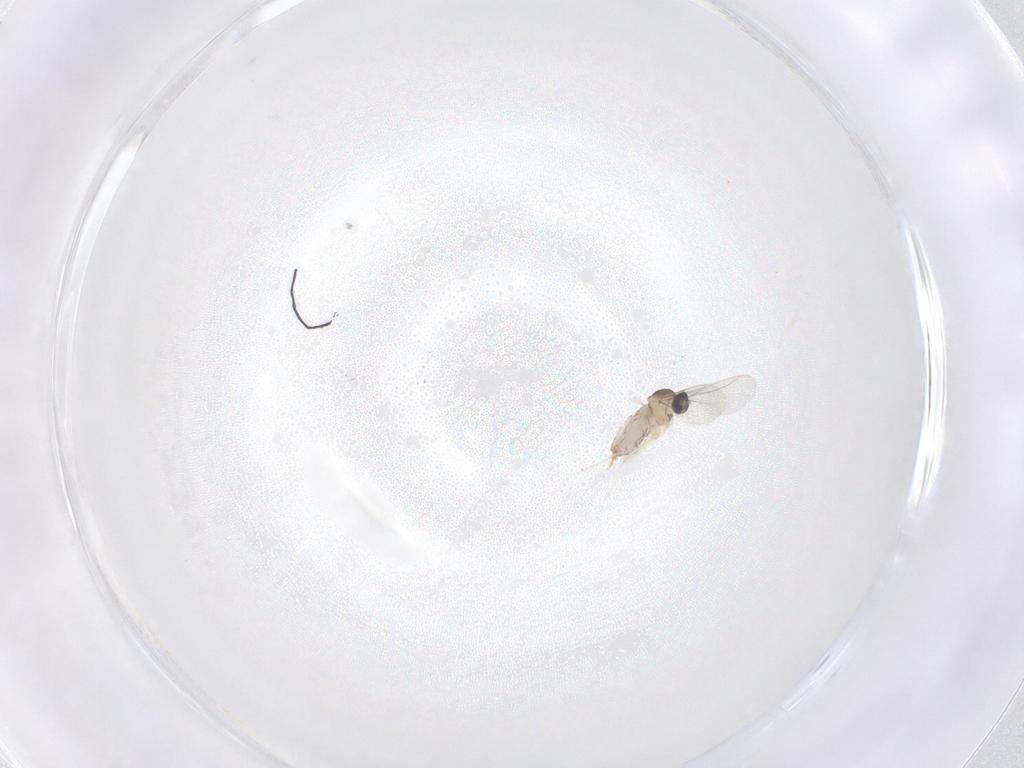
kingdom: Animalia
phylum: Arthropoda
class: Insecta
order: Diptera
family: Cecidomyiidae
